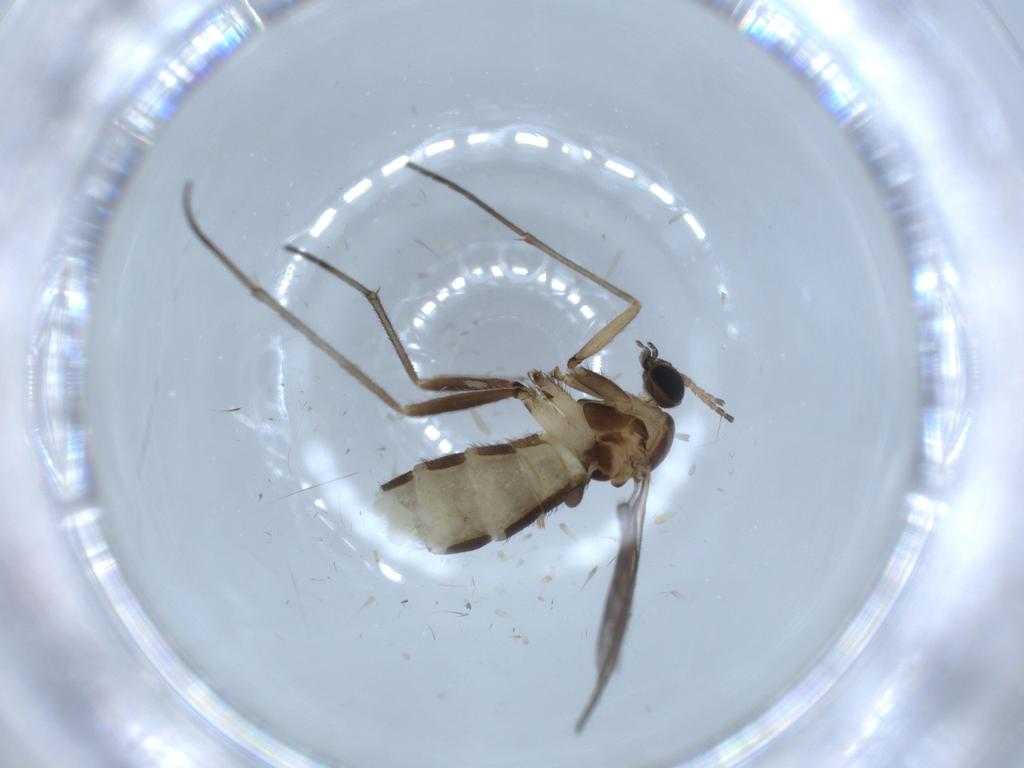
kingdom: Animalia
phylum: Arthropoda
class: Insecta
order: Diptera
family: Sciaridae
